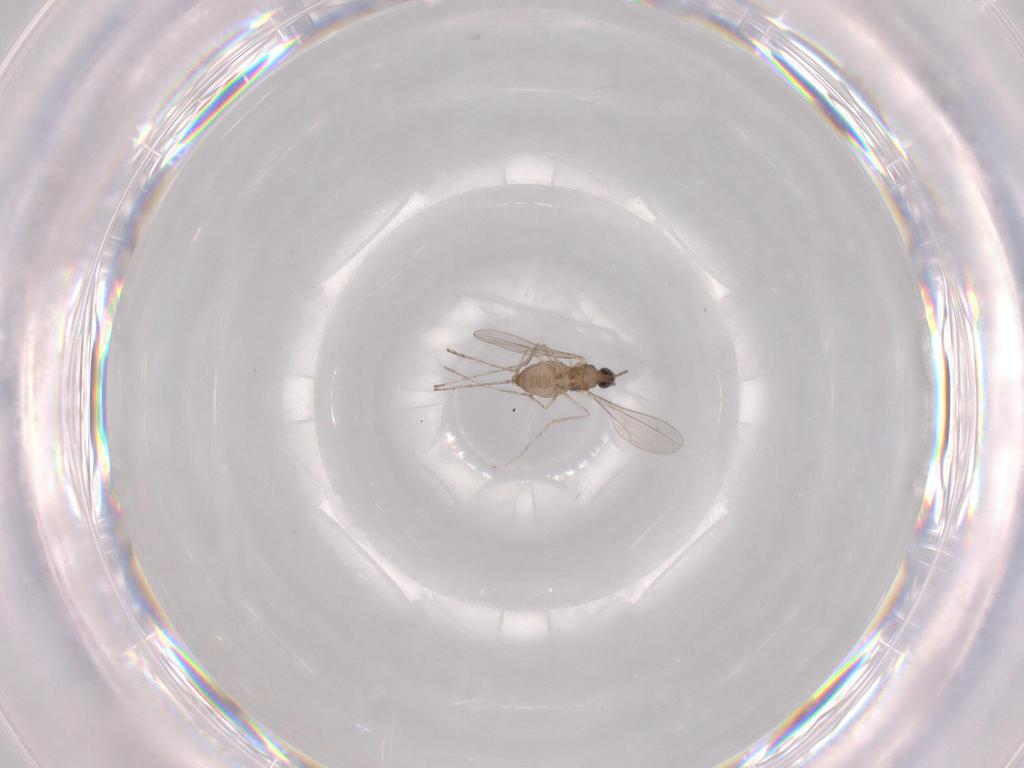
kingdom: Animalia
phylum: Arthropoda
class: Insecta
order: Diptera
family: Cecidomyiidae
